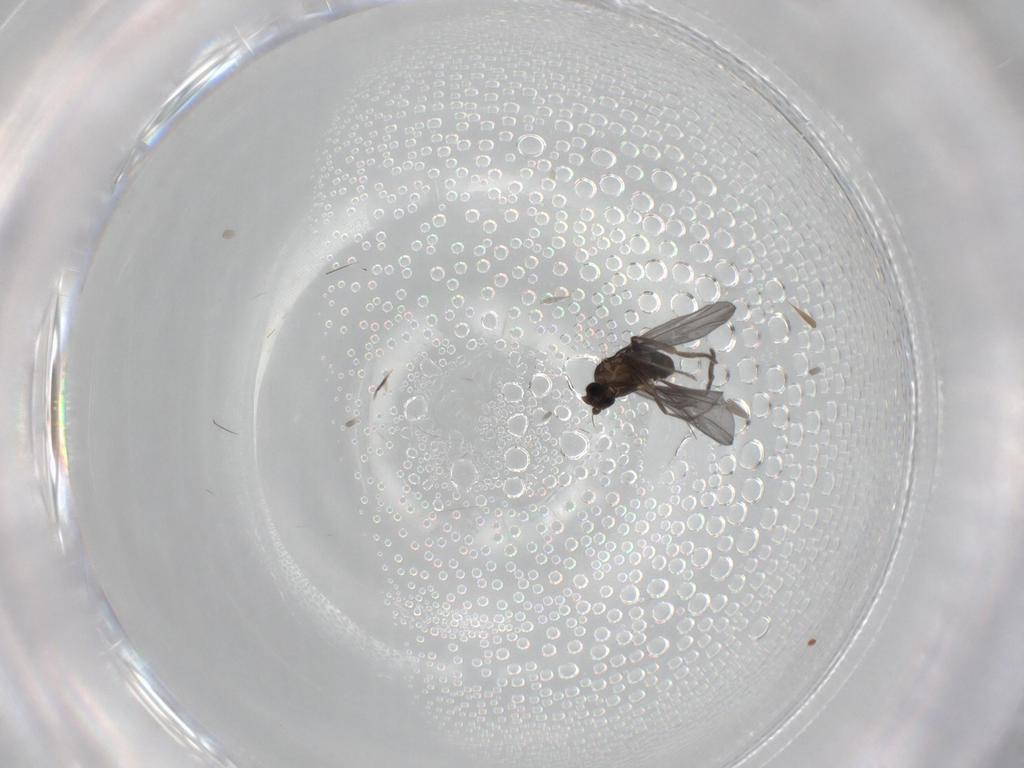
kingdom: Animalia
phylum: Arthropoda
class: Insecta
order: Diptera
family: Phoridae
